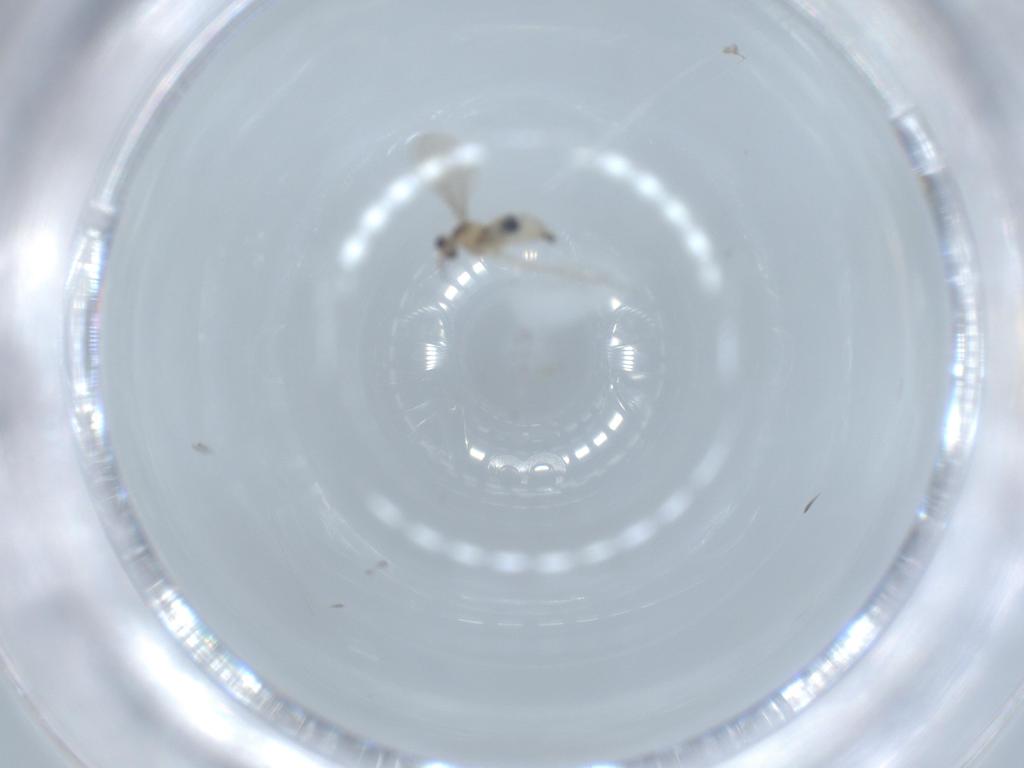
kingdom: Animalia
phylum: Arthropoda
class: Insecta
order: Diptera
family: Cecidomyiidae
